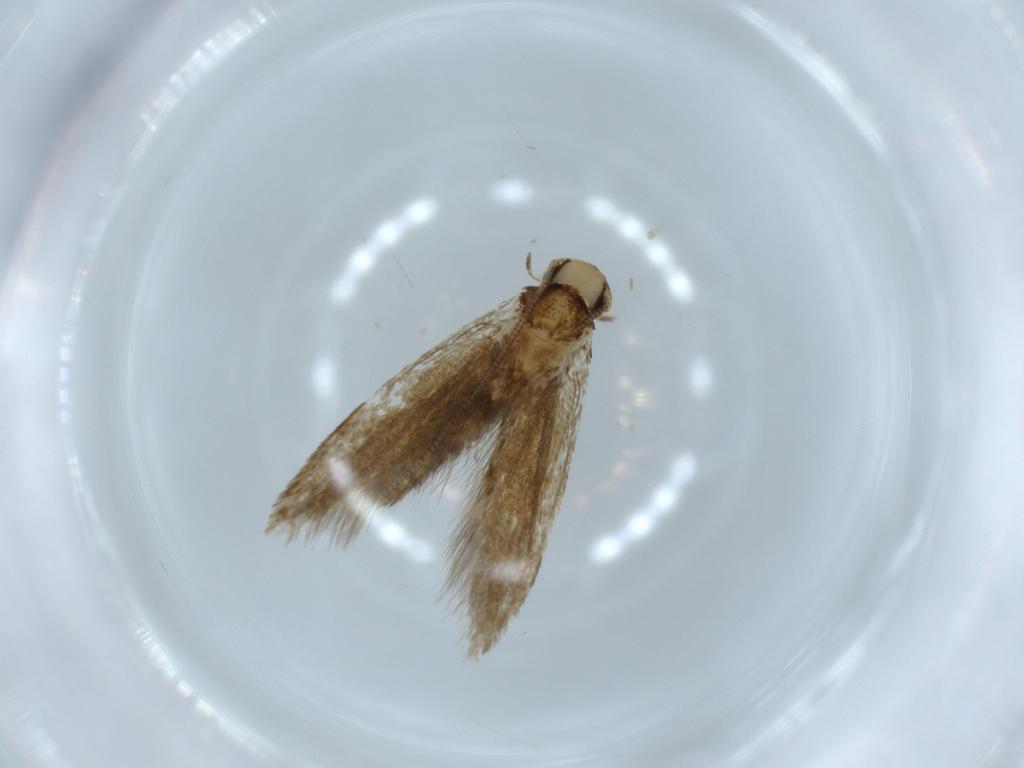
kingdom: Animalia
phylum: Arthropoda
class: Insecta
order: Lepidoptera
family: Tineidae
